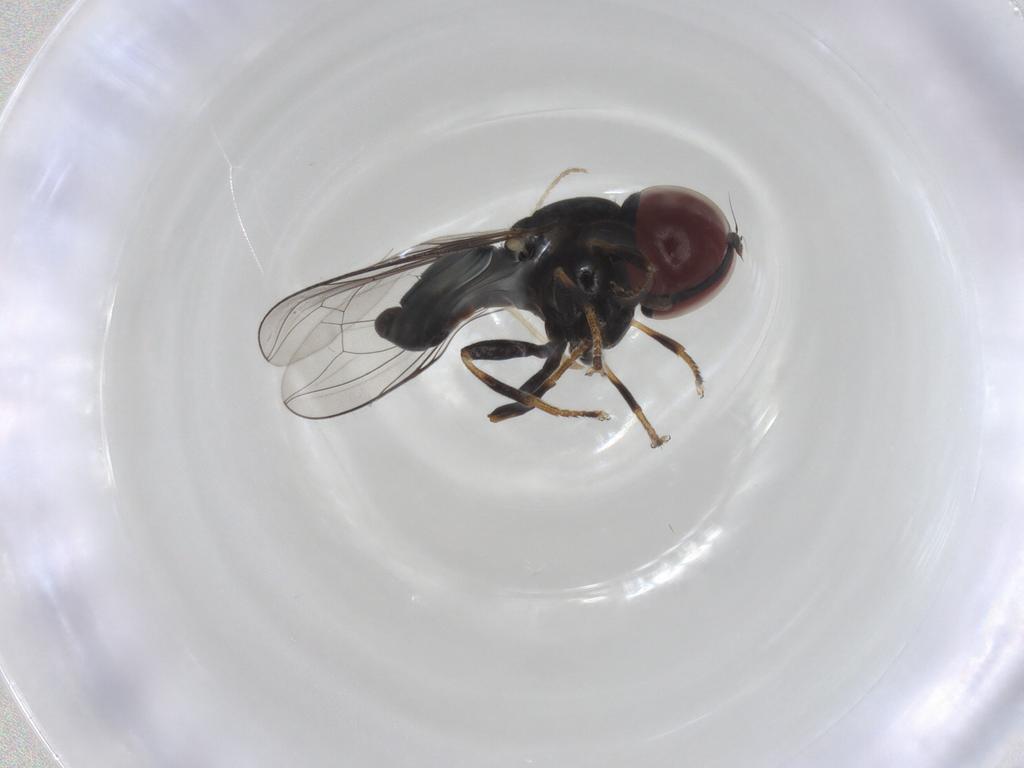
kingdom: Animalia
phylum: Arthropoda
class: Insecta
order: Diptera
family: Pipunculidae
